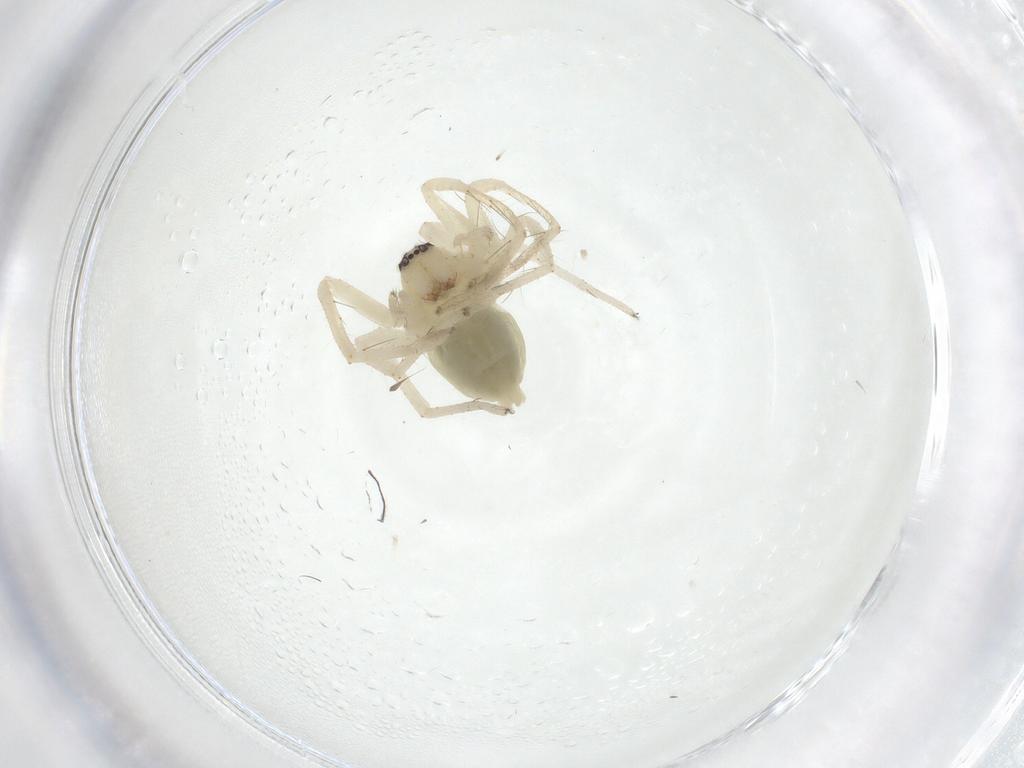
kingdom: Animalia
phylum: Arthropoda
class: Arachnida
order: Araneae
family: Anyphaenidae
